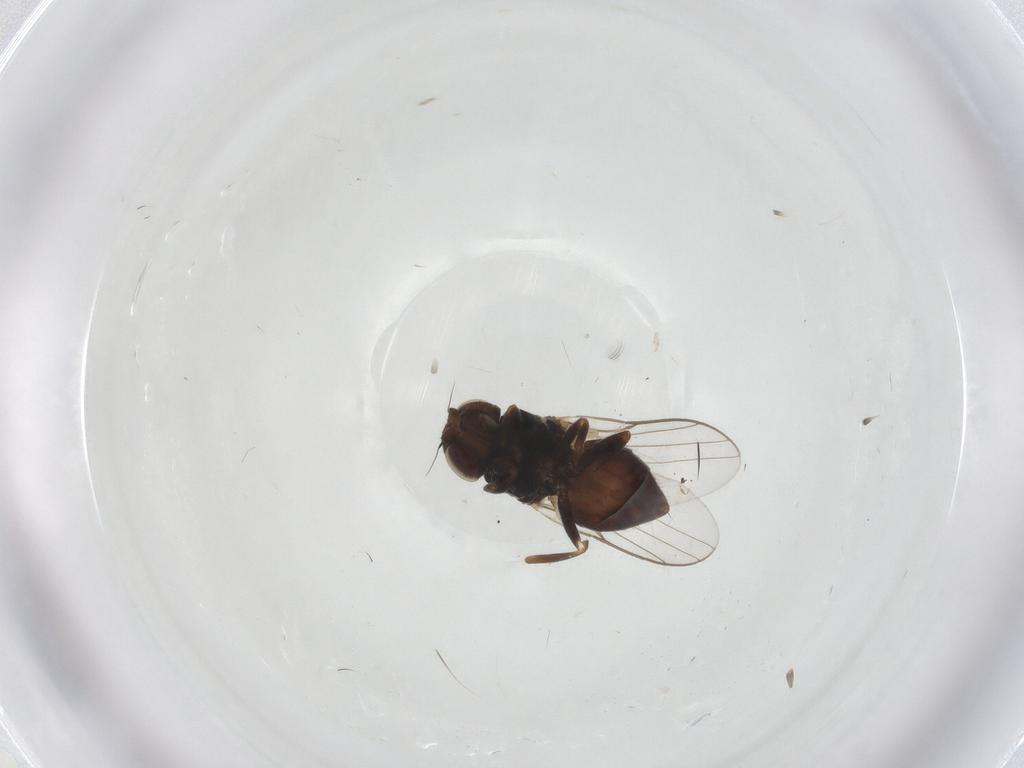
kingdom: Animalia
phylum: Arthropoda
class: Insecta
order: Diptera
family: Chloropidae
